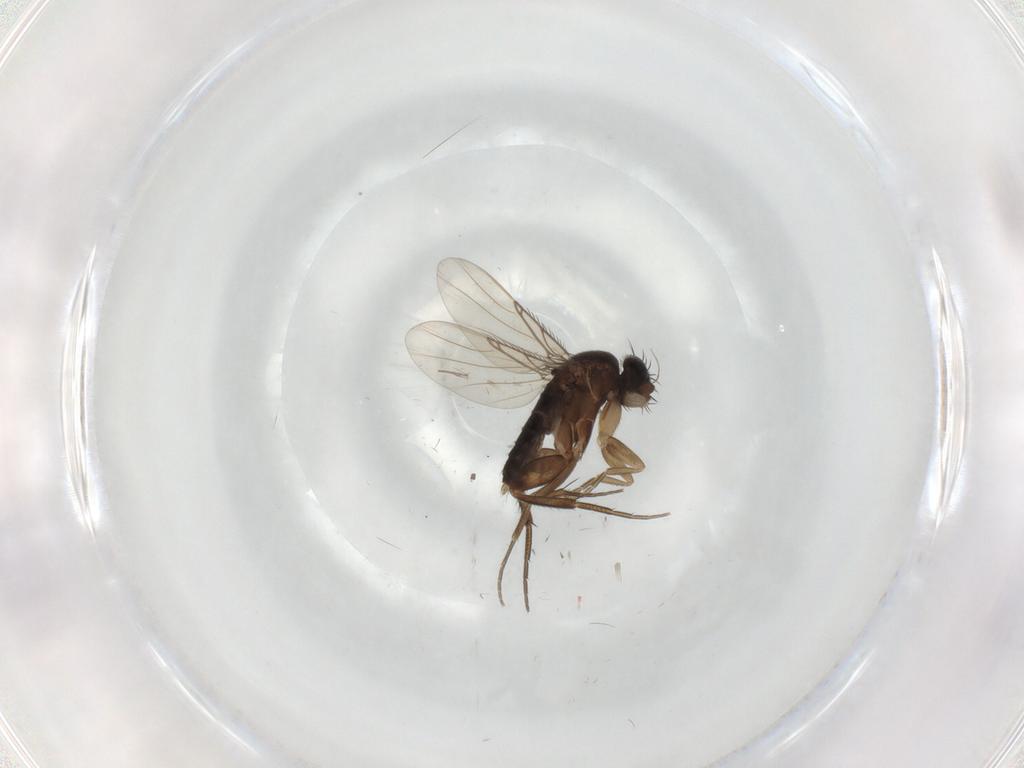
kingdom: Animalia
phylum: Arthropoda
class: Insecta
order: Diptera
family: Phoridae
